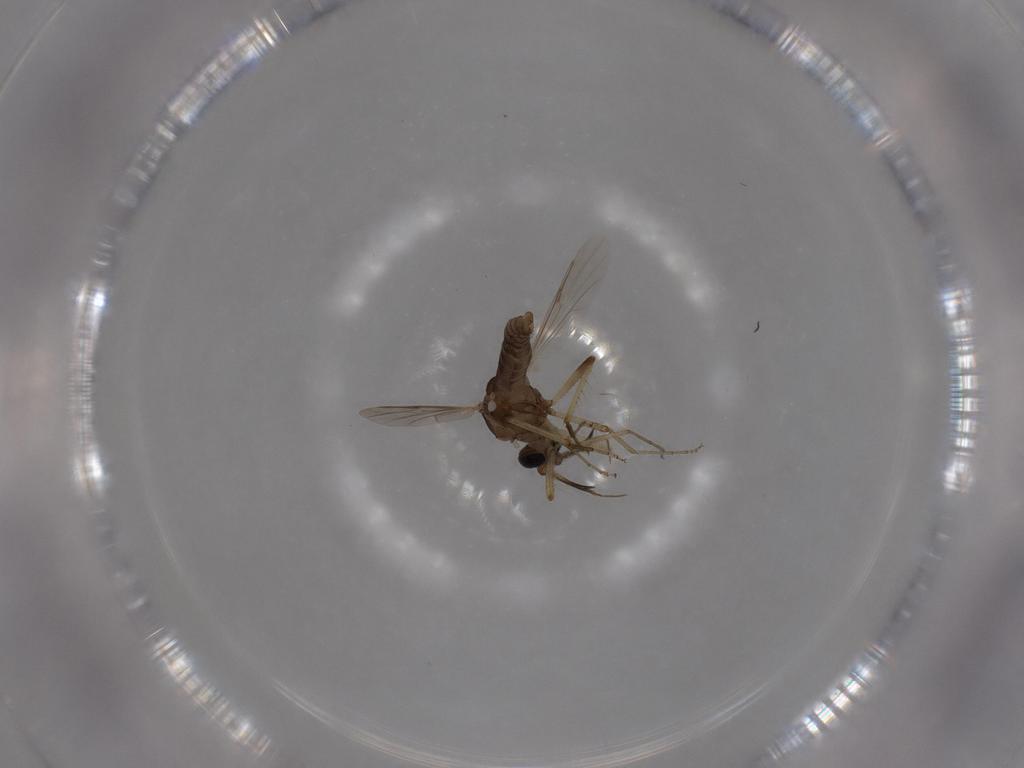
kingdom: Animalia
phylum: Arthropoda
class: Insecta
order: Diptera
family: Ceratopogonidae
